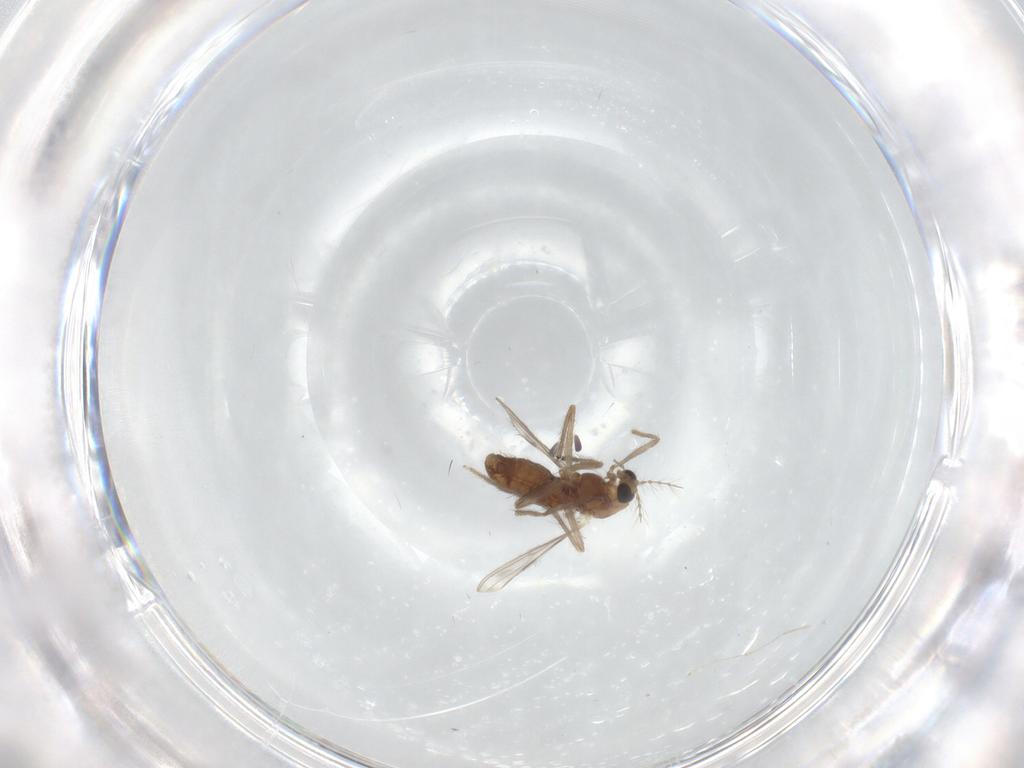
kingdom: Animalia
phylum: Arthropoda
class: Insecta
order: Diptera
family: Chironomidae
